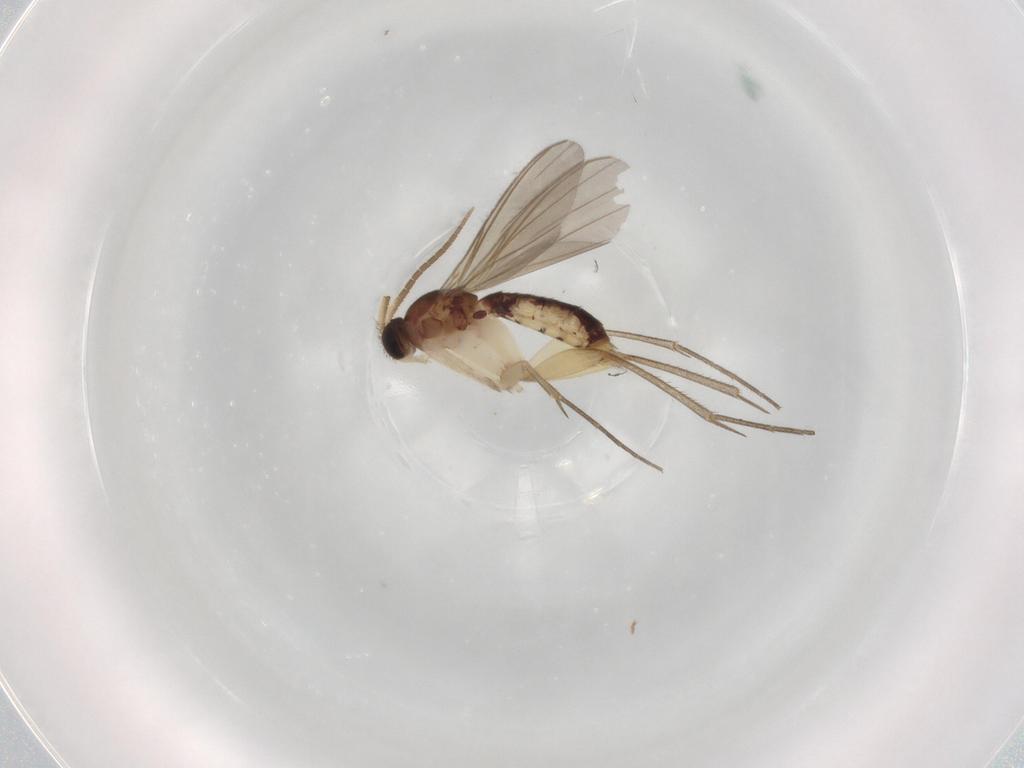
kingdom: Animalia
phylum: Arthropoda
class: Insecta
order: Diptera
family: Mycetophilidae
